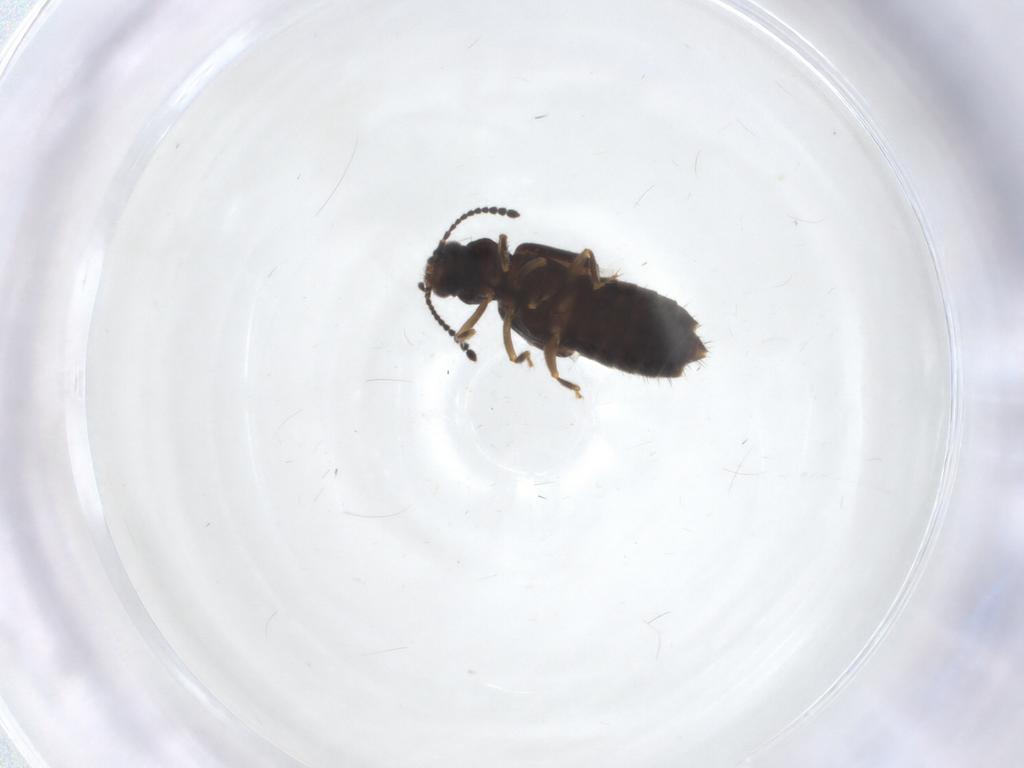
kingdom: Animalia
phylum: Arthropoda
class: Insecta
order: Coleoptera
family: Staphylinidae
